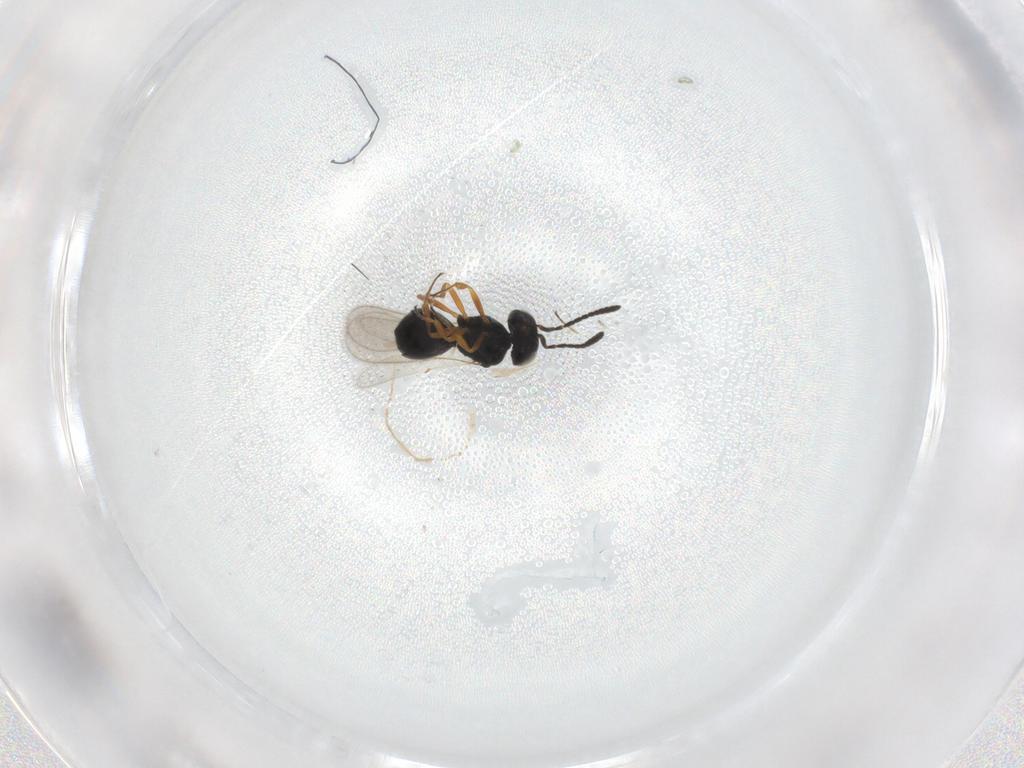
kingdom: Animalia
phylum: Arthropoda
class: Insecta
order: Hymenoptera
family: Scelionidae
